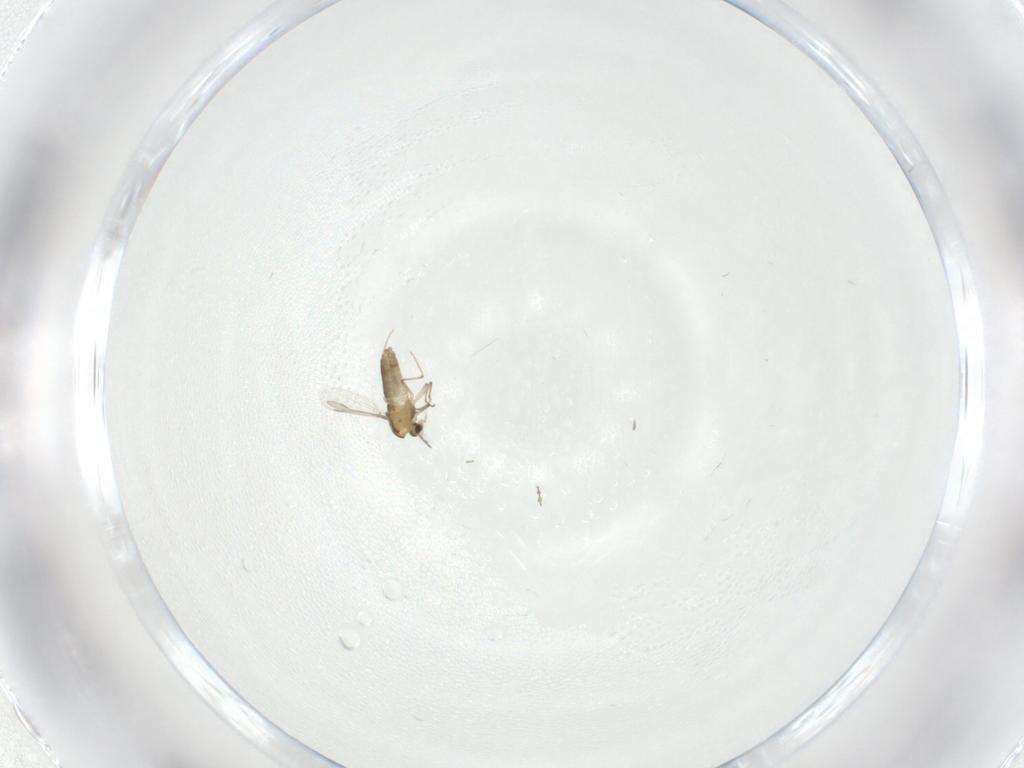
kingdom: Animalia
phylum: Arthropoda
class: Insecta
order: Diptera
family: Chironomidae
